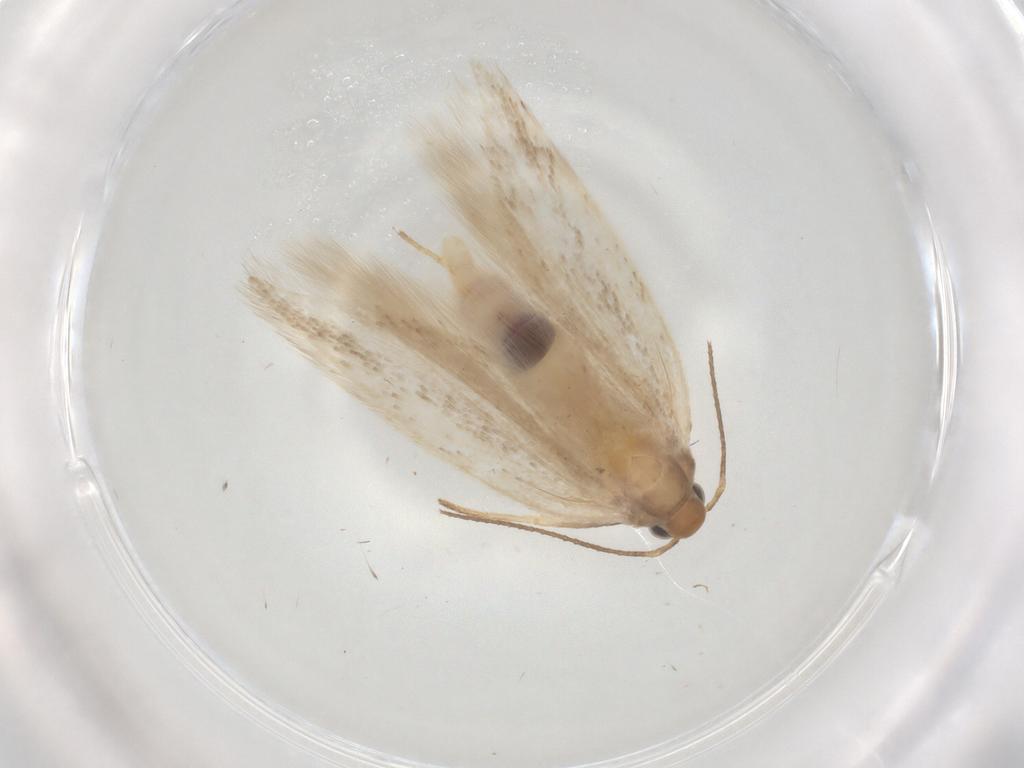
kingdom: Animalia
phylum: Arthropoda
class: Insecta
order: Lepidoptera
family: Gelechiidae
